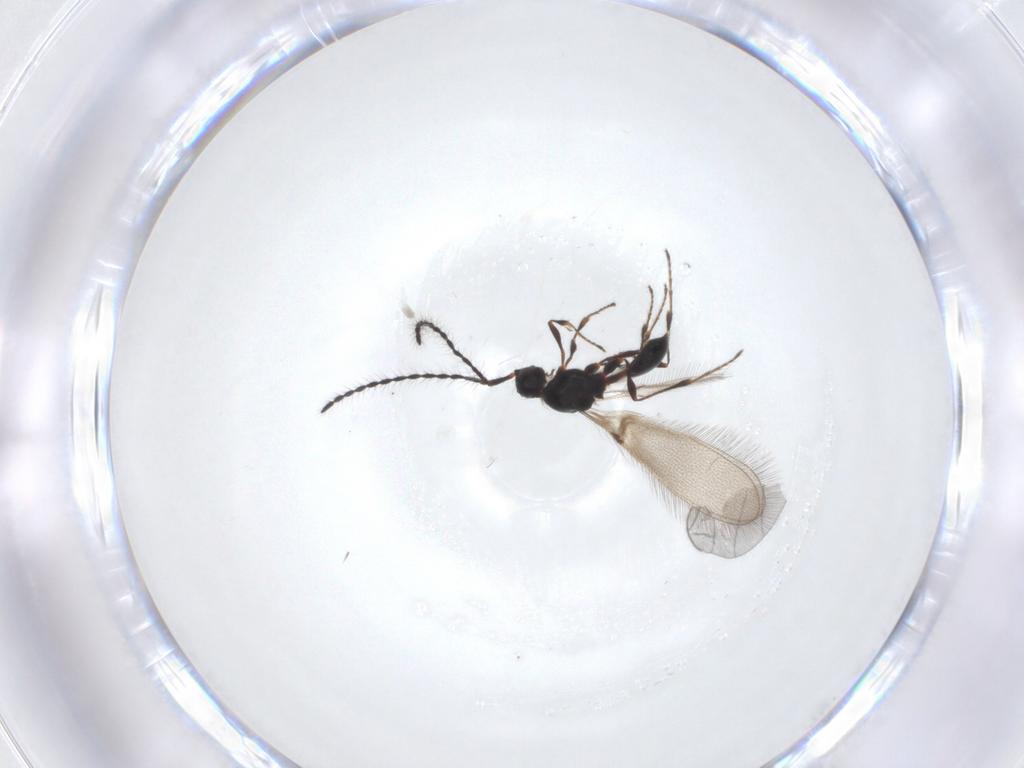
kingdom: Animalia
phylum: Arthropoda
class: Insecta
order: Hymenoptera
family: Diapriidae
